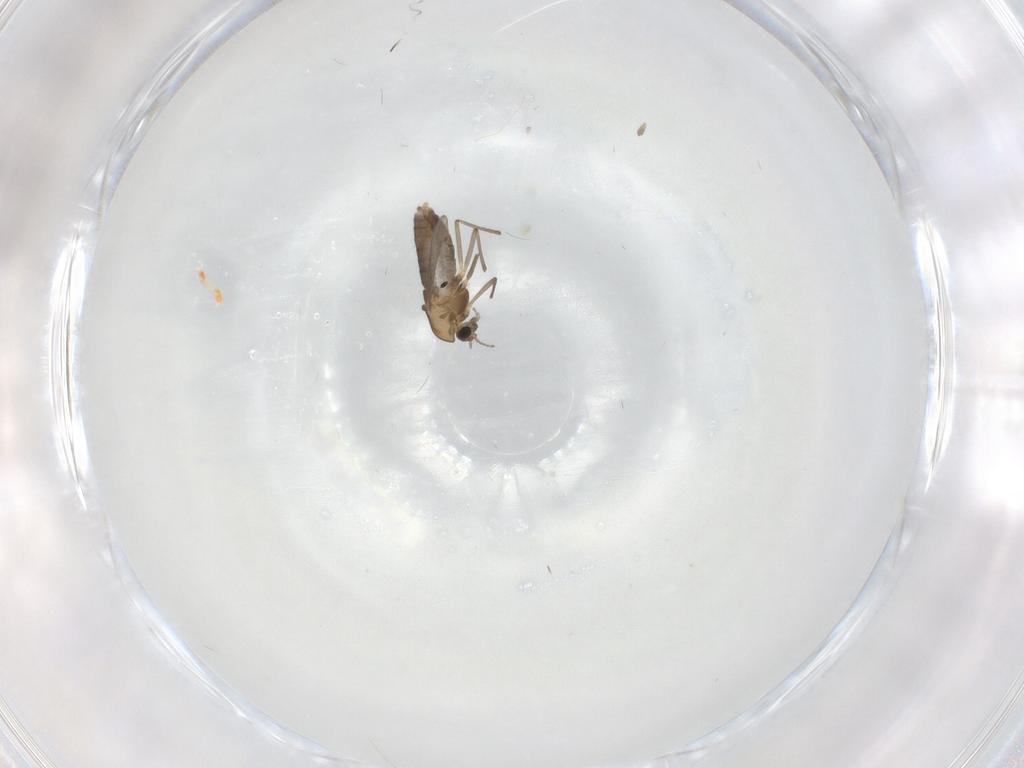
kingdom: Animalia
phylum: Arthropoda
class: Insecta
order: Diptera
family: Chironomidae
